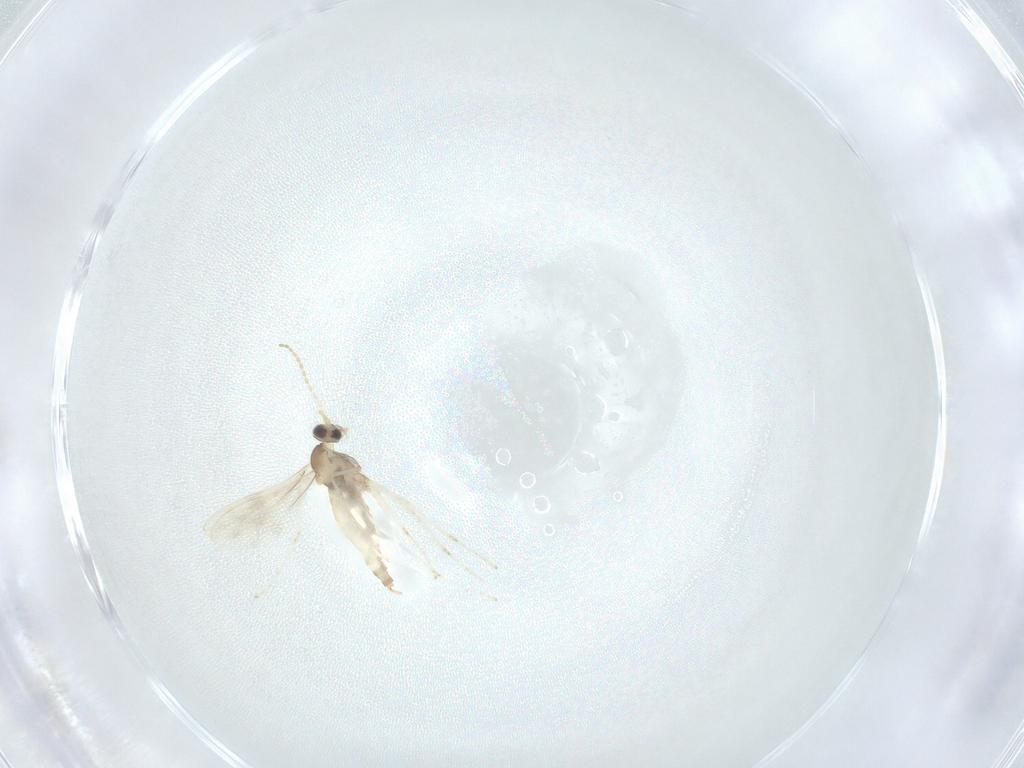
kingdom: Animalia
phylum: Arthropoda
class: Insecta
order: Diptera
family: Cecidomyiidae
